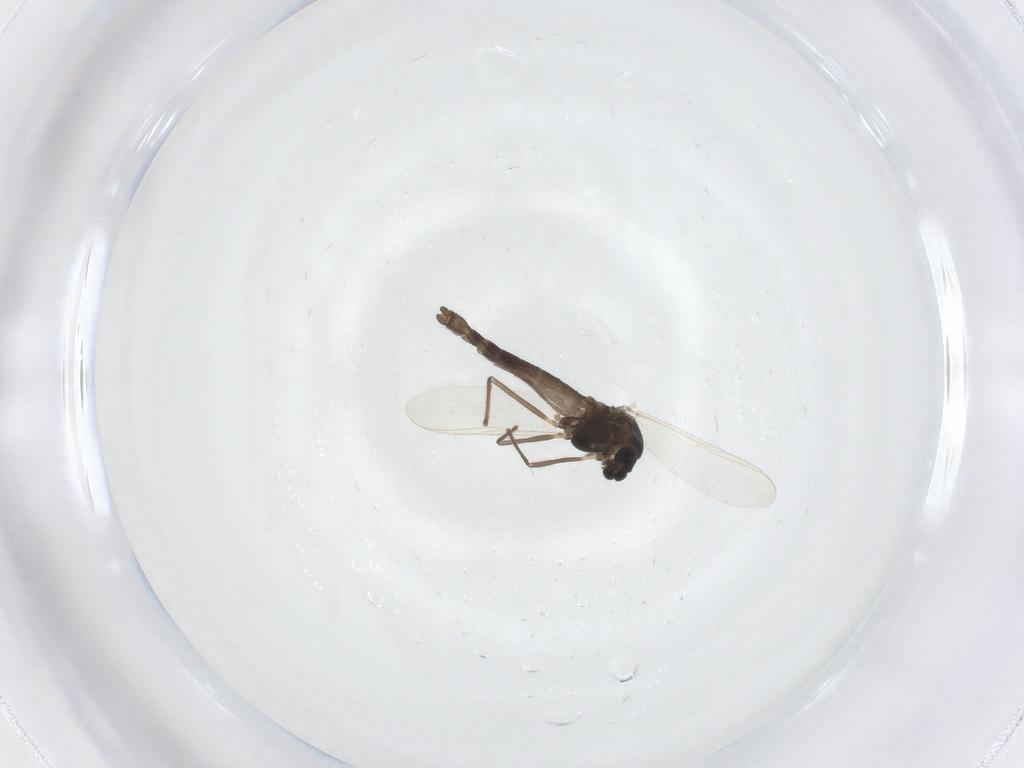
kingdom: Animalia
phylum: Arthropoda
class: Insecta
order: Diptera
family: Chironomidae
